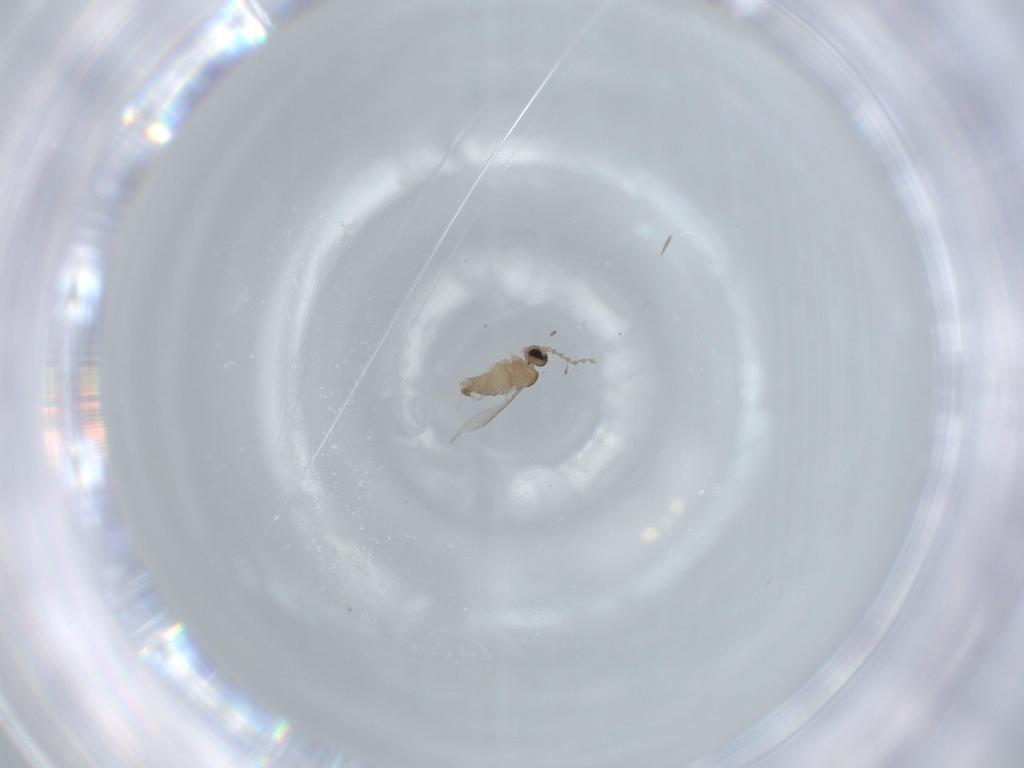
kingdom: Animalia
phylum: Arthropoda
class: Insecta
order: Diptera
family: Cecidomyiidae
